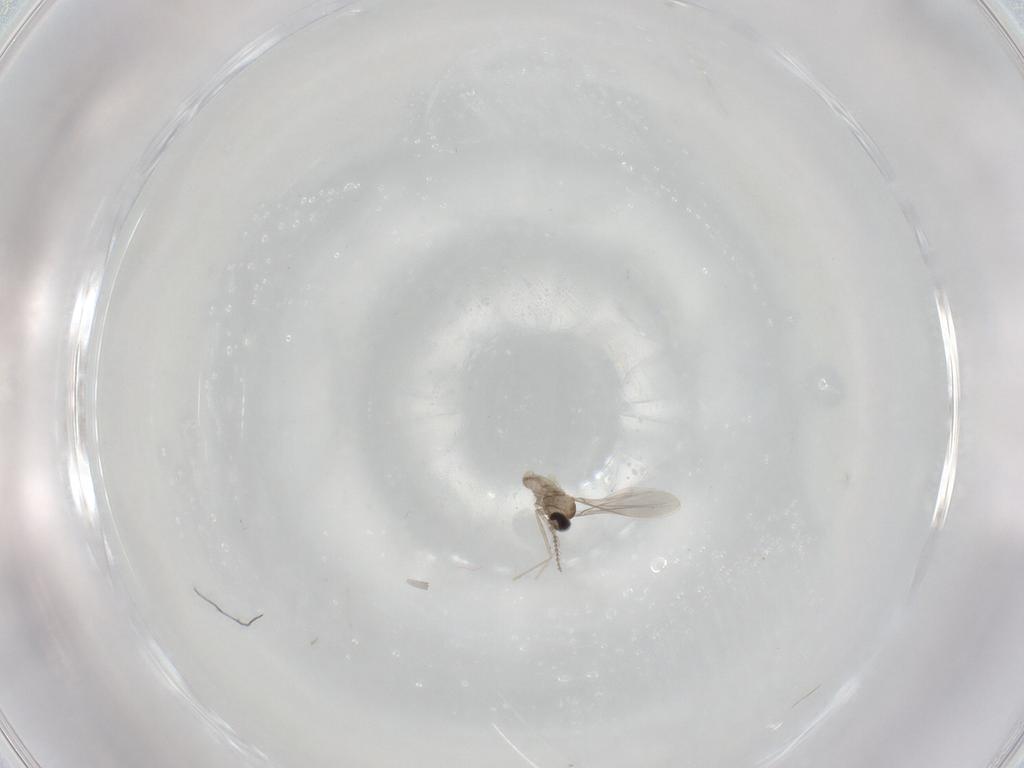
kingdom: Animalia
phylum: Arthropoda
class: Insecta
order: Diptera
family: Cecidomyiidae
